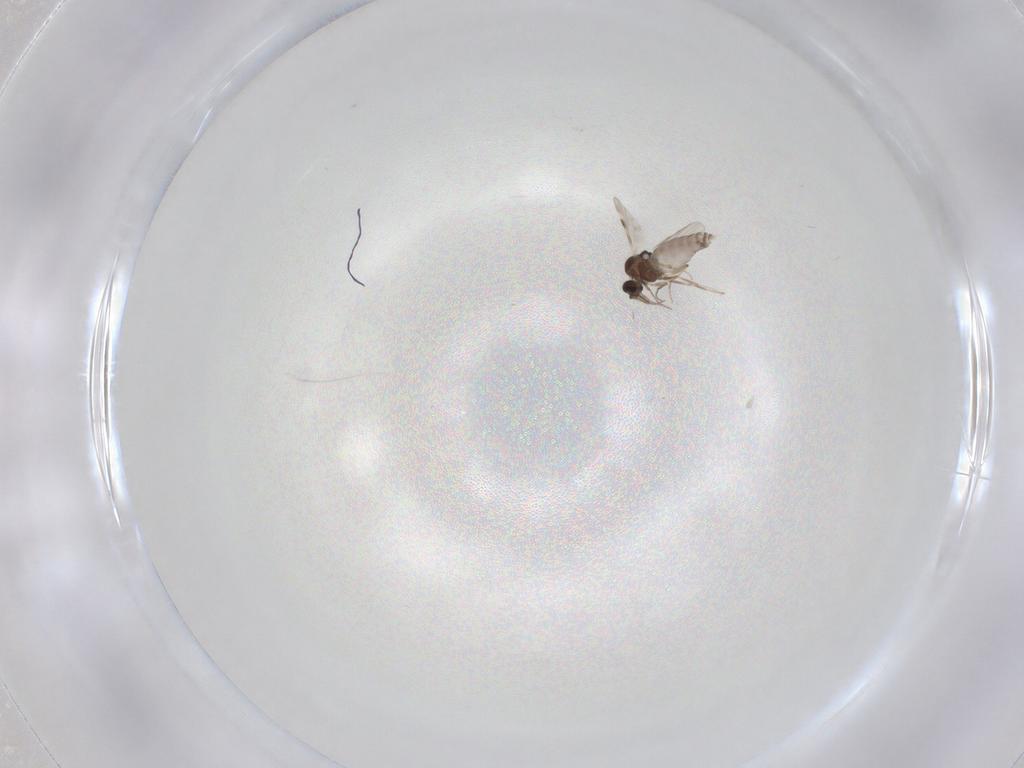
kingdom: Animalia
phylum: Arthropoda
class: Insecta
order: Diptera
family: Cecidomyiidae
